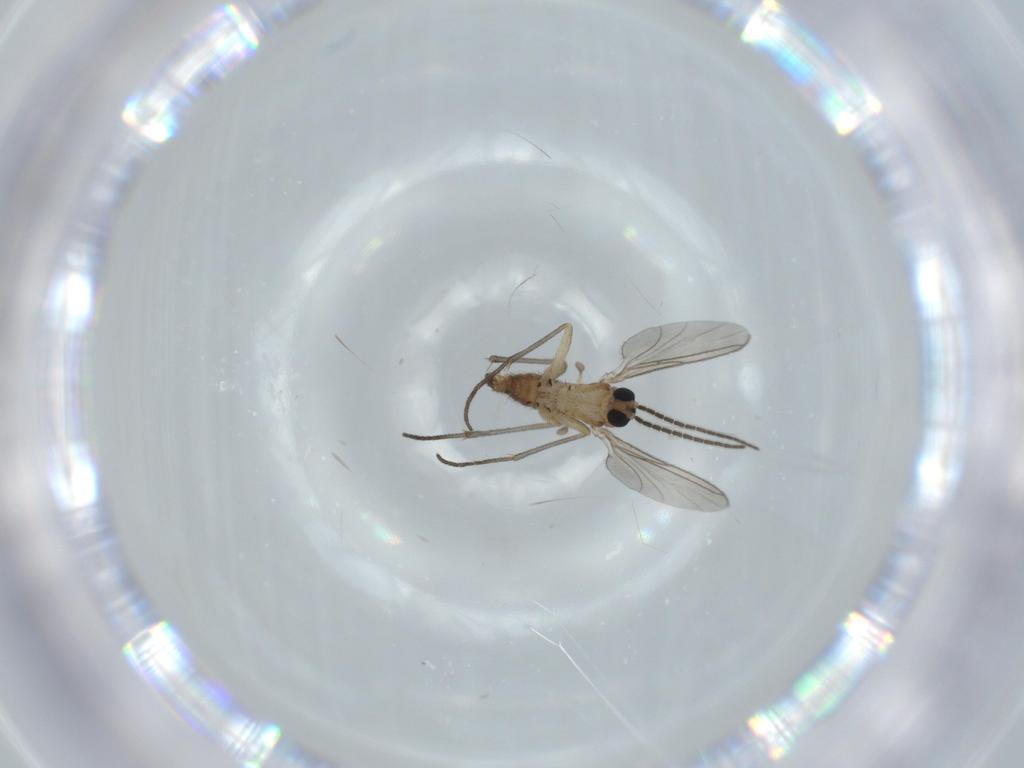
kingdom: Animalia
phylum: Arthropoda
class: Insecta
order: Diptera
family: Sciaridae
